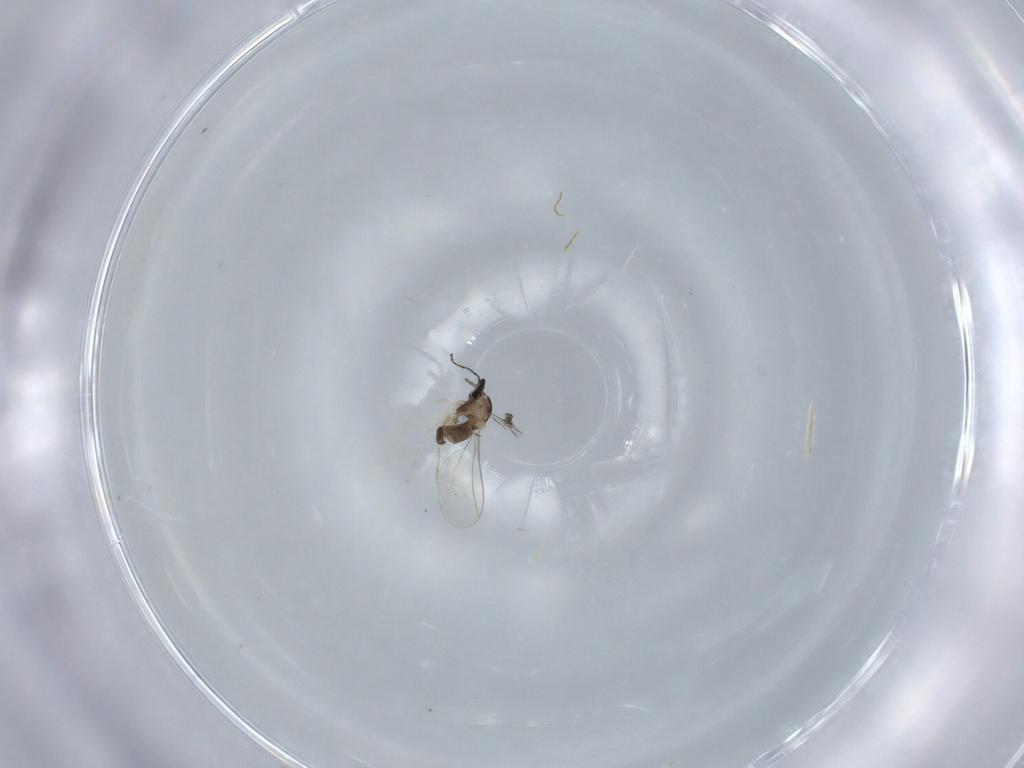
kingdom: Animalia
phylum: Arthropoda
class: Insecta
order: Diptera
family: Cecidomyiidae
